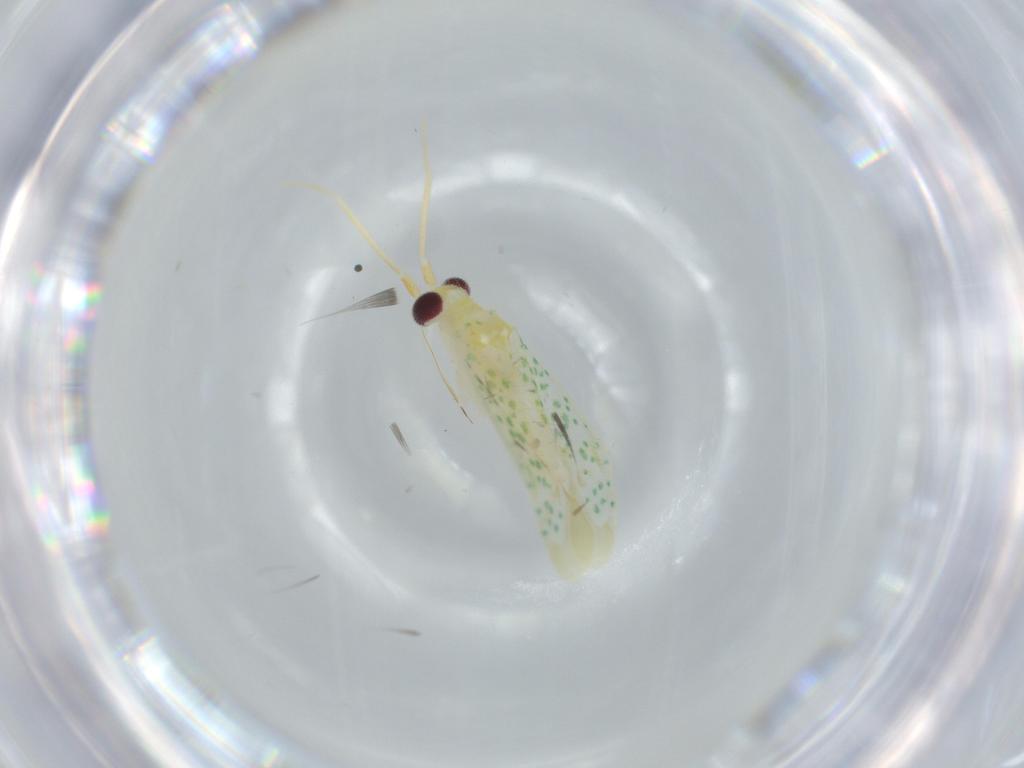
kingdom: Animalia
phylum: Arthropoda
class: Insecta
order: Hemiptera
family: Miridae
